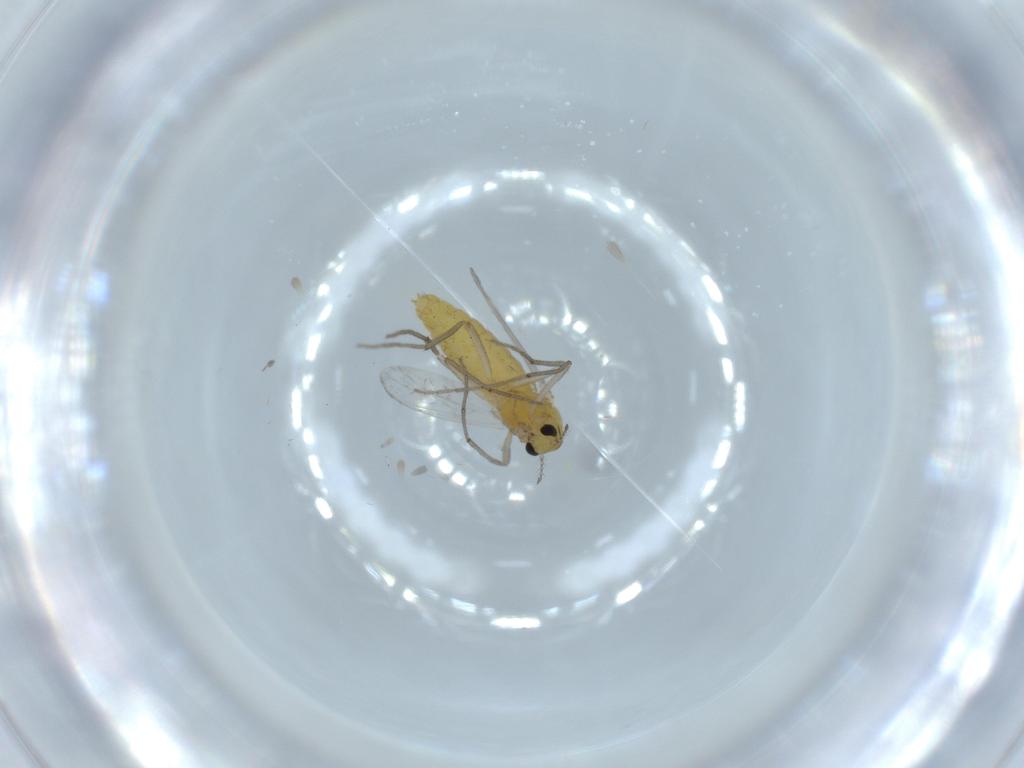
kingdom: Animalia
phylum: Arthropoda
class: Insecta
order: Diptera
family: Chironomidae
